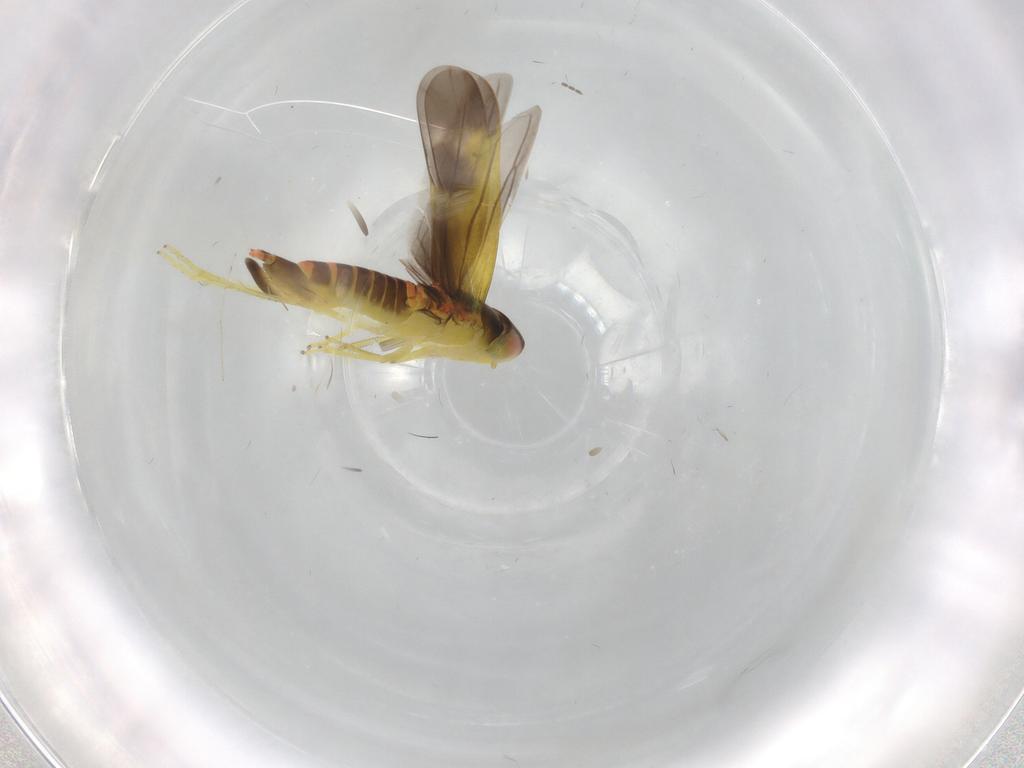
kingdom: Animalia
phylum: Arthropoda
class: Insecta
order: Hemiptera
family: Cicadellidae
